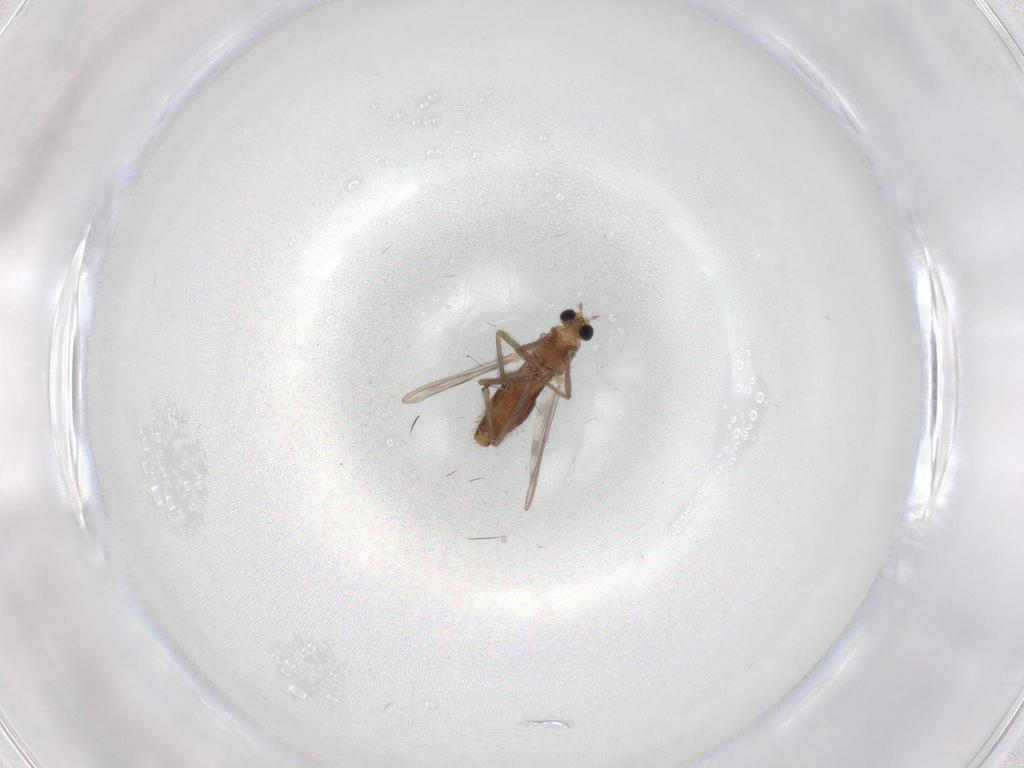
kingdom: Animalia
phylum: Arthropoda
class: Insecta
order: Diptera
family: Chironomidae
